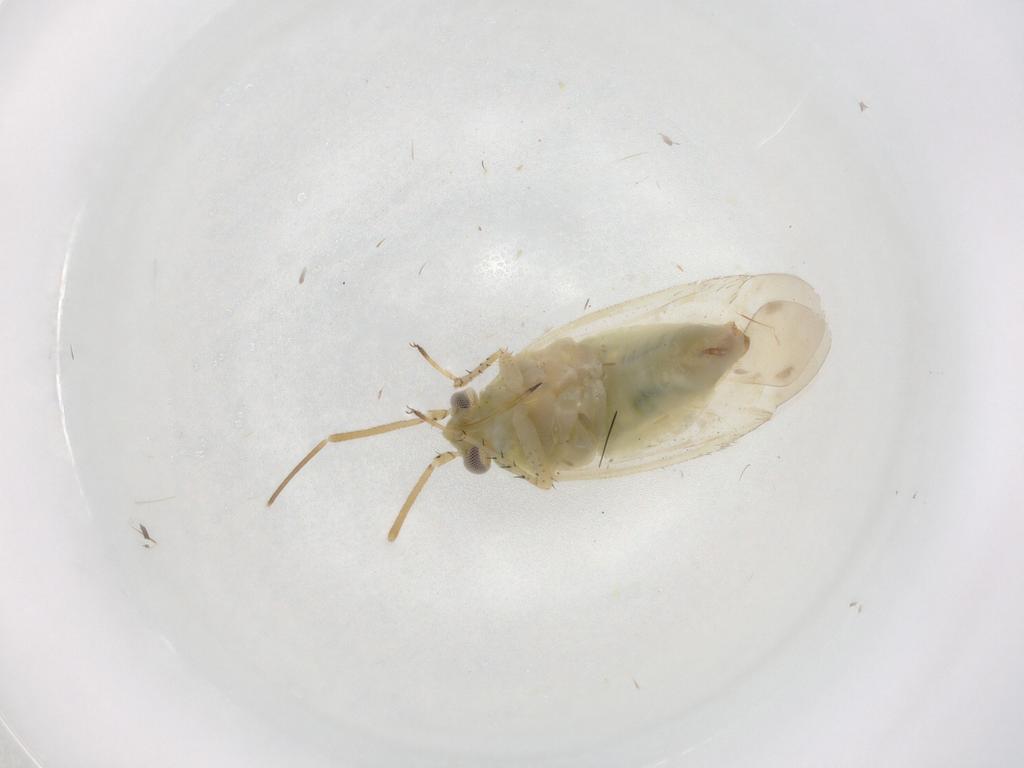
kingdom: Animalia
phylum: Arthropoda
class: Insecta
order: Hemiptera
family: Miridae
